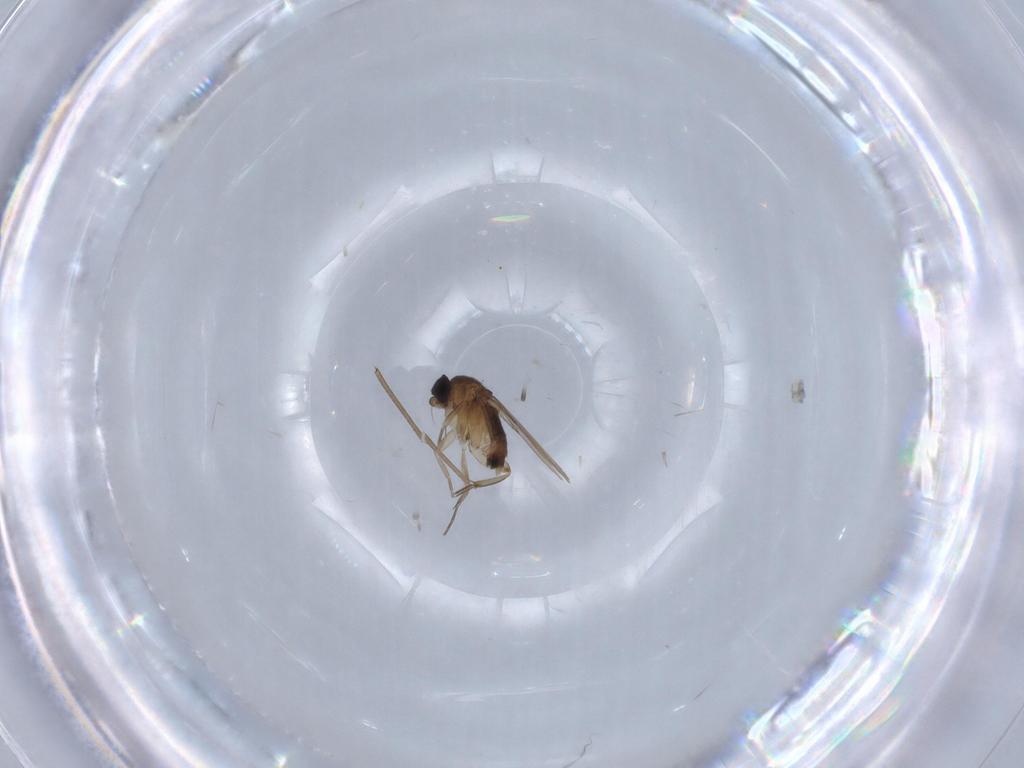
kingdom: Animalia
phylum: Arthropoda
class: Insecta
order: Diptera
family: Phoridae
